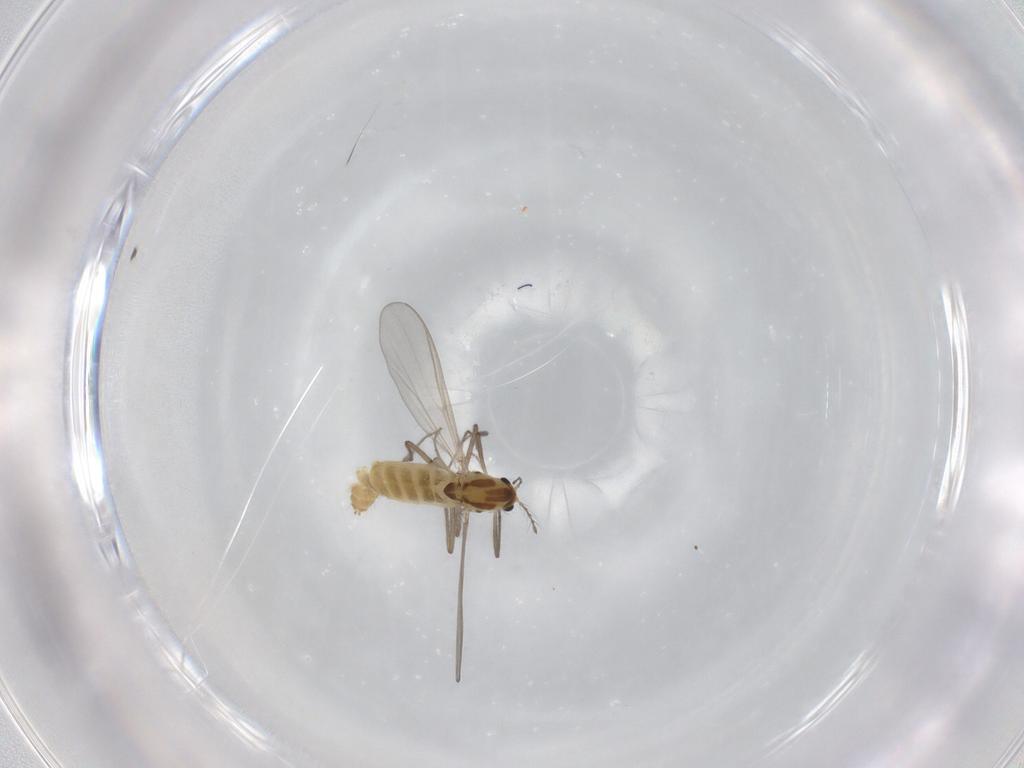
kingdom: Animalia
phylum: Arthropoda
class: Insecta
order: Diptera
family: Chironomidae
